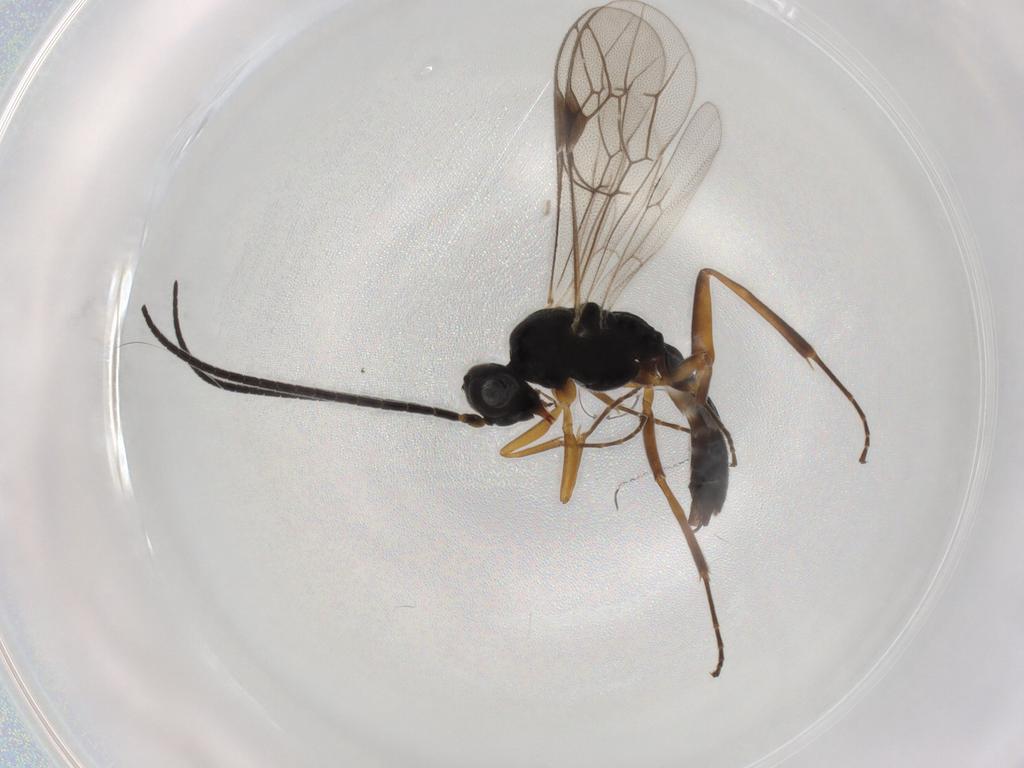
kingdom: Animalia
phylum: Arthropoda
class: Insecta
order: Hymenoptera
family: Ichneumonidae
